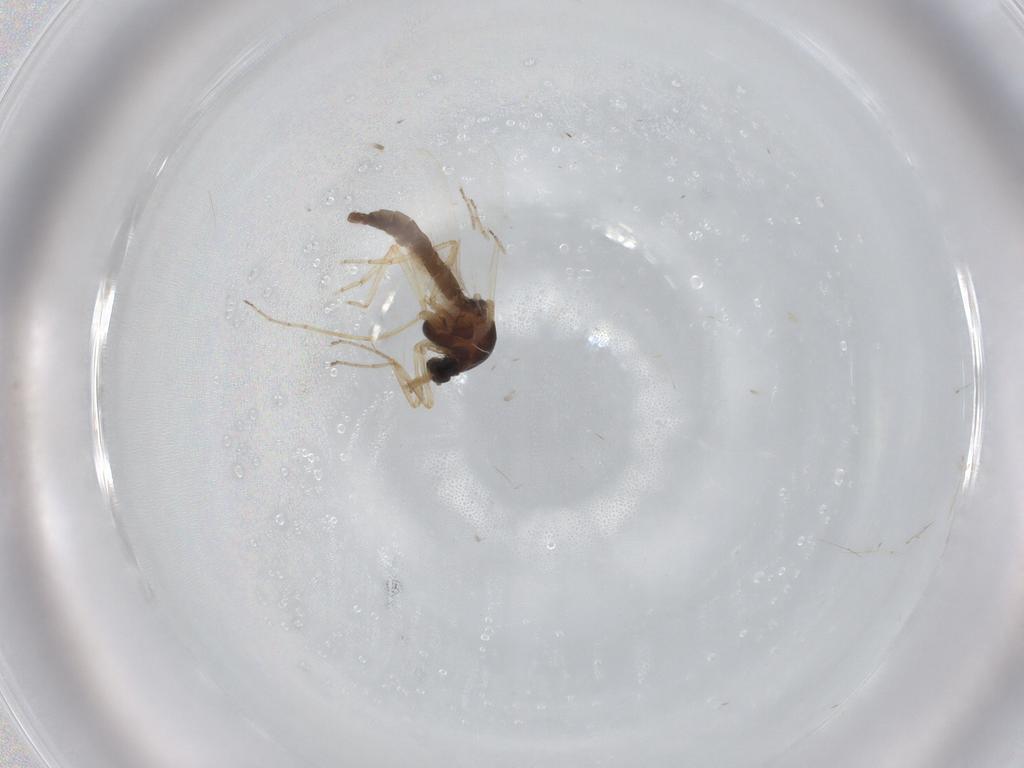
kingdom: Animalia
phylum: Arthropoda
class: Insecta
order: Diptera
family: Ceratopogonidae
